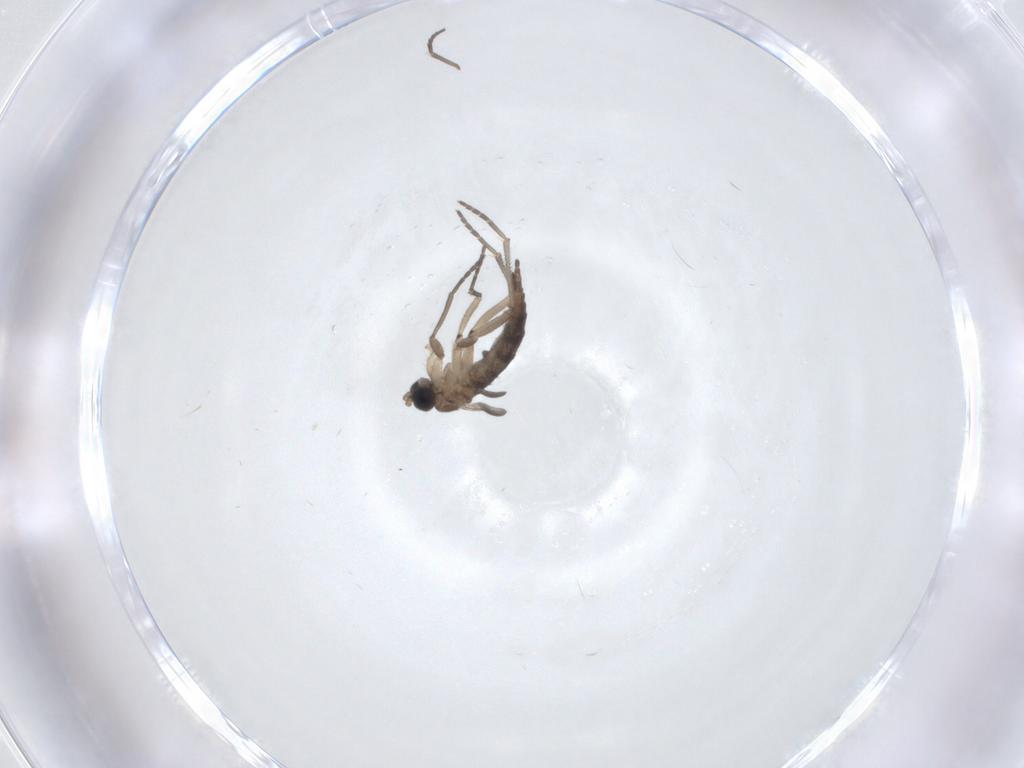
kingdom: Animalia
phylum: Arthropoda
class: Insecta
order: Diptera
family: Sciaridae
